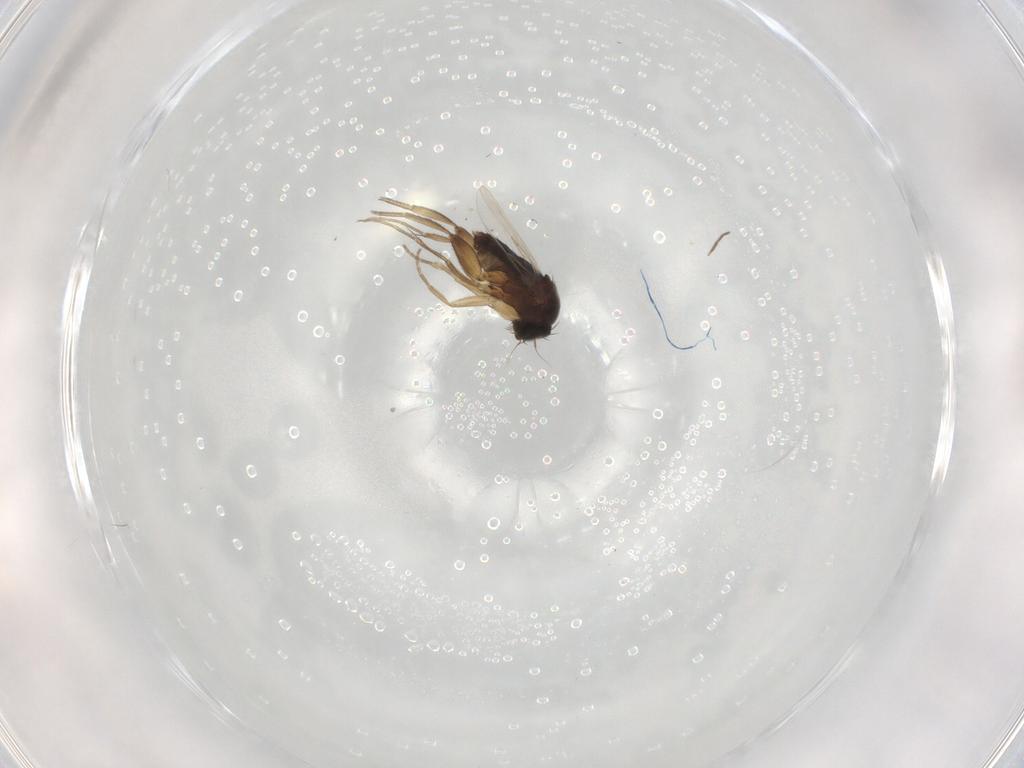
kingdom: Animalia
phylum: Arthropoda
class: Insecta
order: Diptera
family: Phoridae
